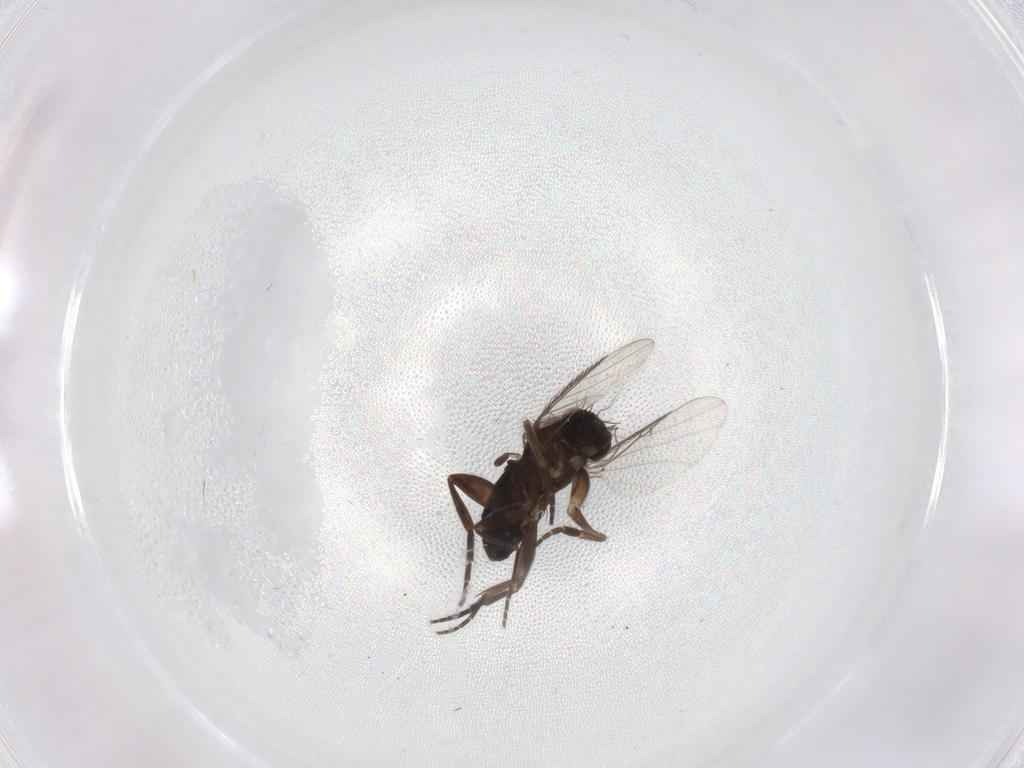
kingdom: Animalia
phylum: Arthropoda
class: Insecta
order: Diptera
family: Phoridae
